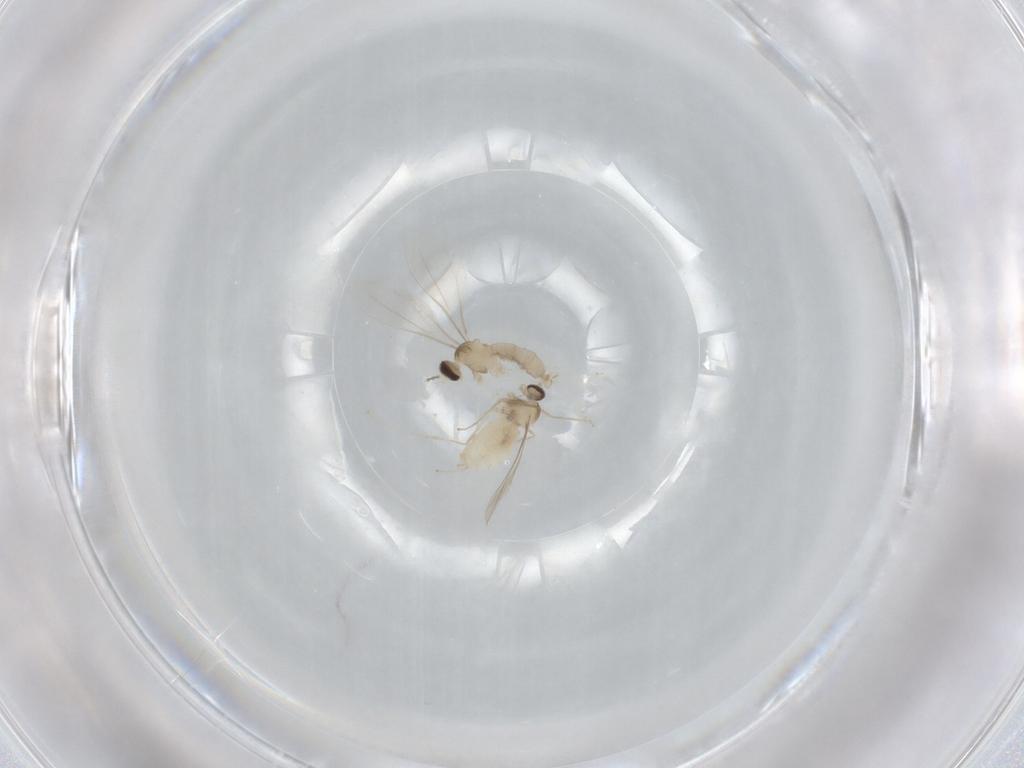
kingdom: Animalia
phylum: Arthropoda
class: Insecta
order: Diptera
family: Cecidomyiidae
